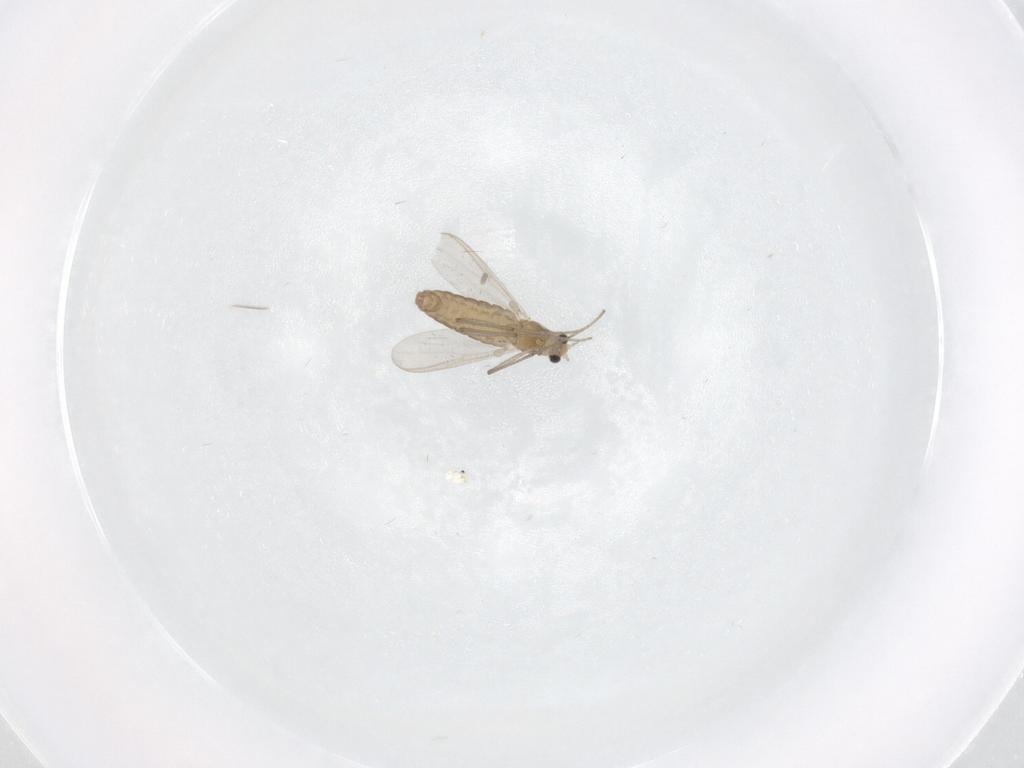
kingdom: Animalia
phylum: Arthropoda
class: Insecta
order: Diptera
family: Chironomidae
